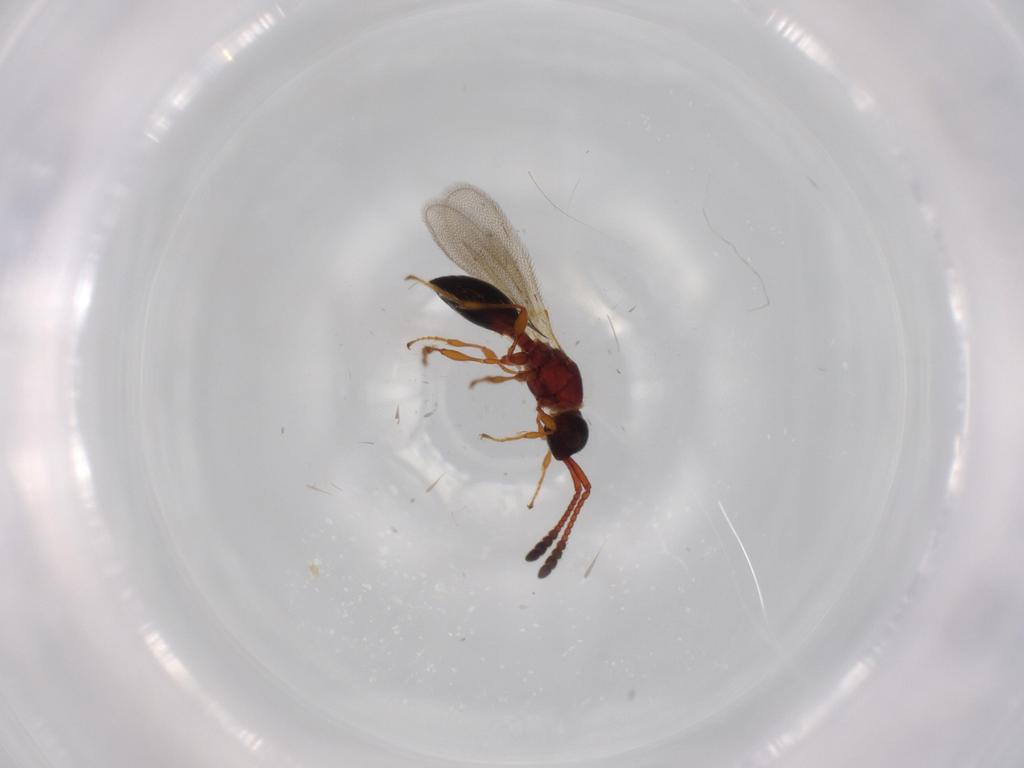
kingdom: Animalia
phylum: Arthropoda
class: Insecta
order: Hymenoptera
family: Diapriidae
